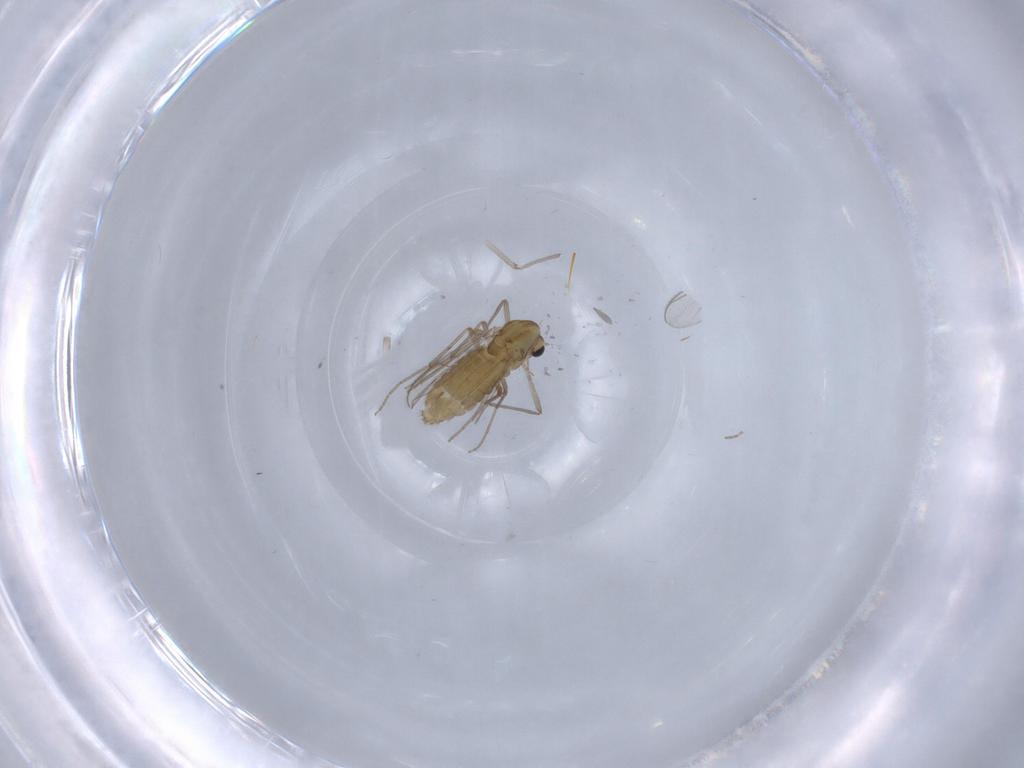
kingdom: Animalia
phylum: Arthropoda
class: Insecta
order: Diptera
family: Chironomidae
